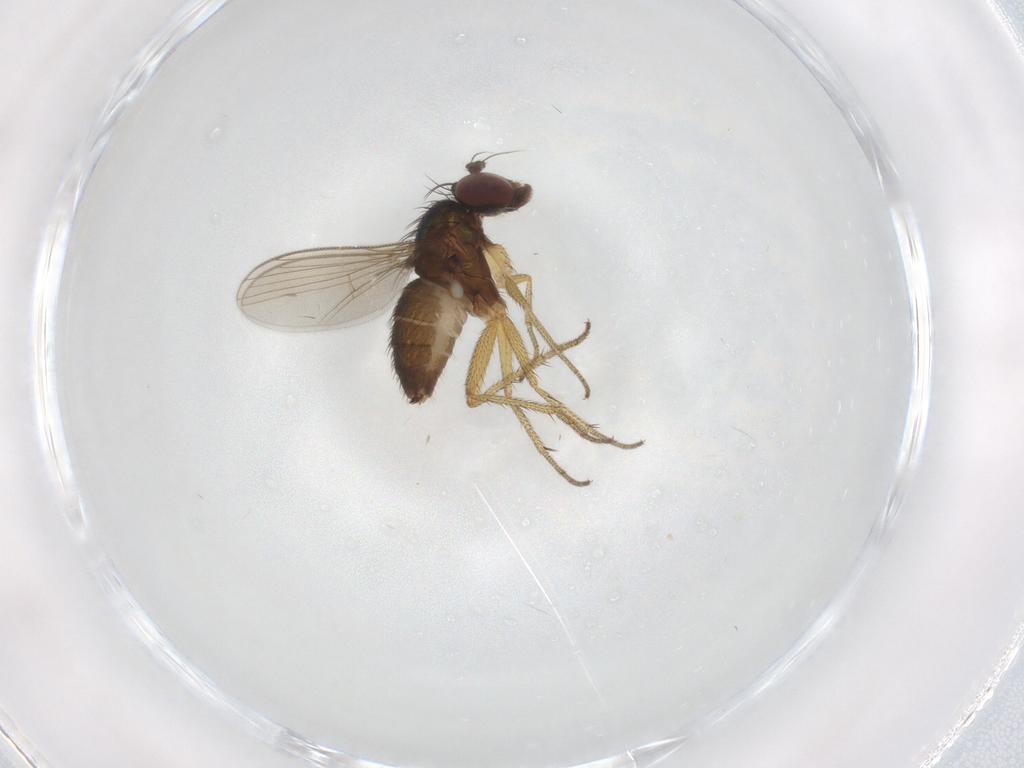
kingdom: Animalia
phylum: Arthropoda
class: Insecta
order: Diptera
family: Dolichopodidae
